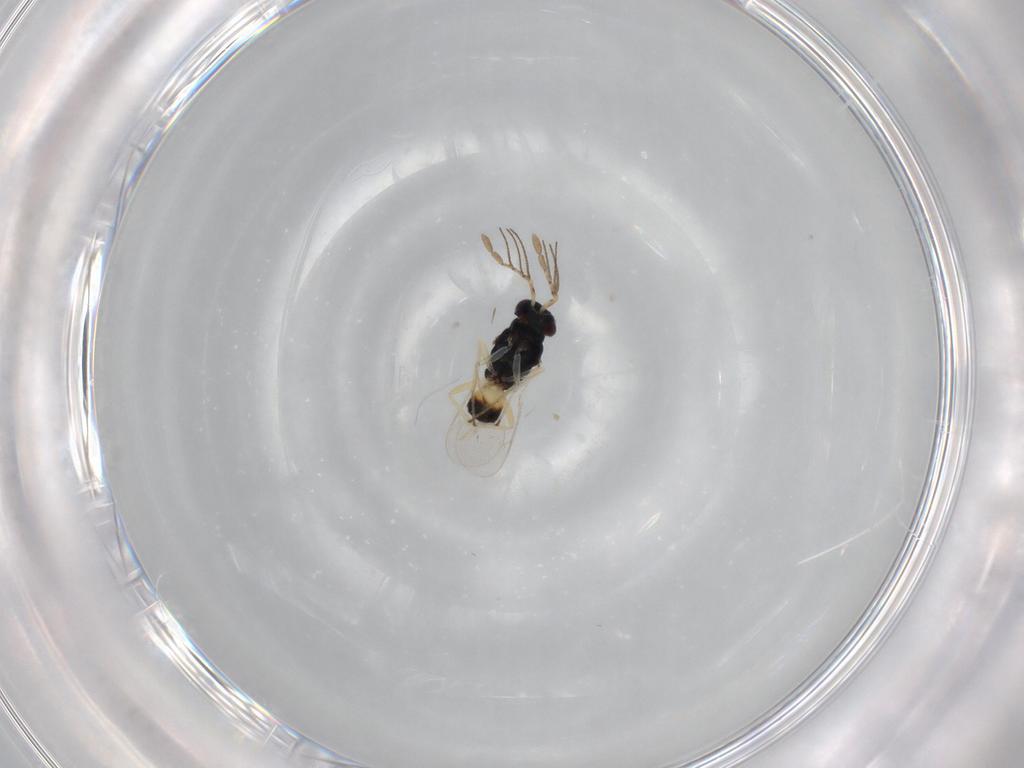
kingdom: Animalia
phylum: Arthropoda
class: Insecta
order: Hymenoptera
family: Eulophidae
